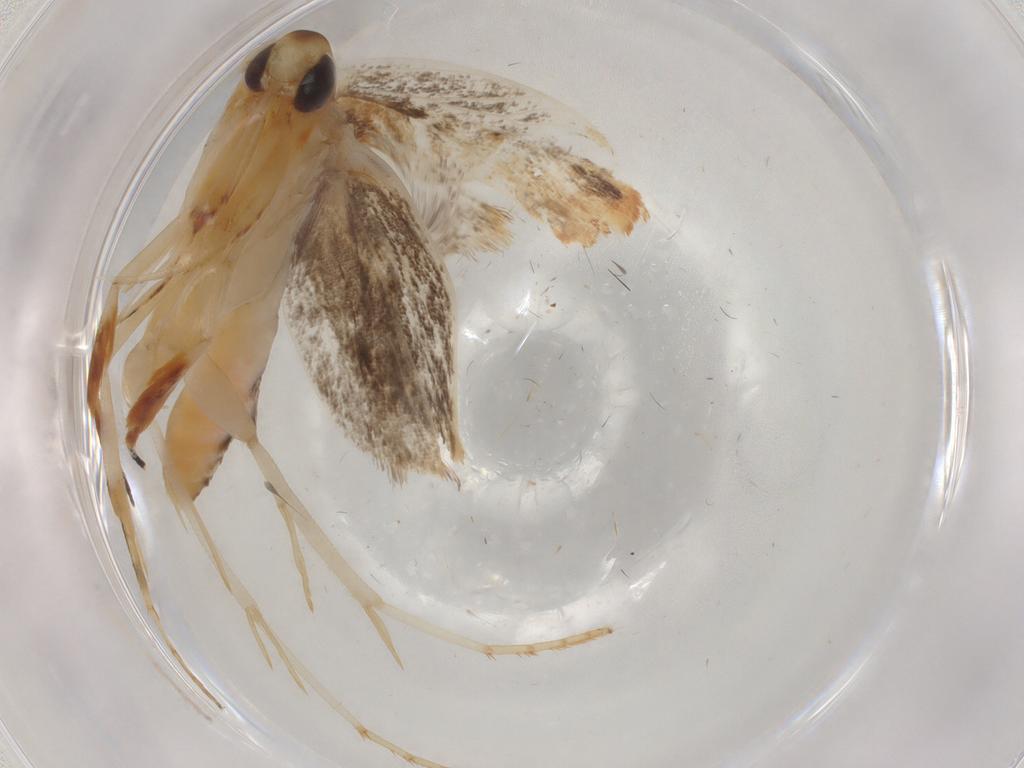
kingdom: Animalia
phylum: Arthropoda
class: Insecta
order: Lepidoptera
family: Gelechiidae
